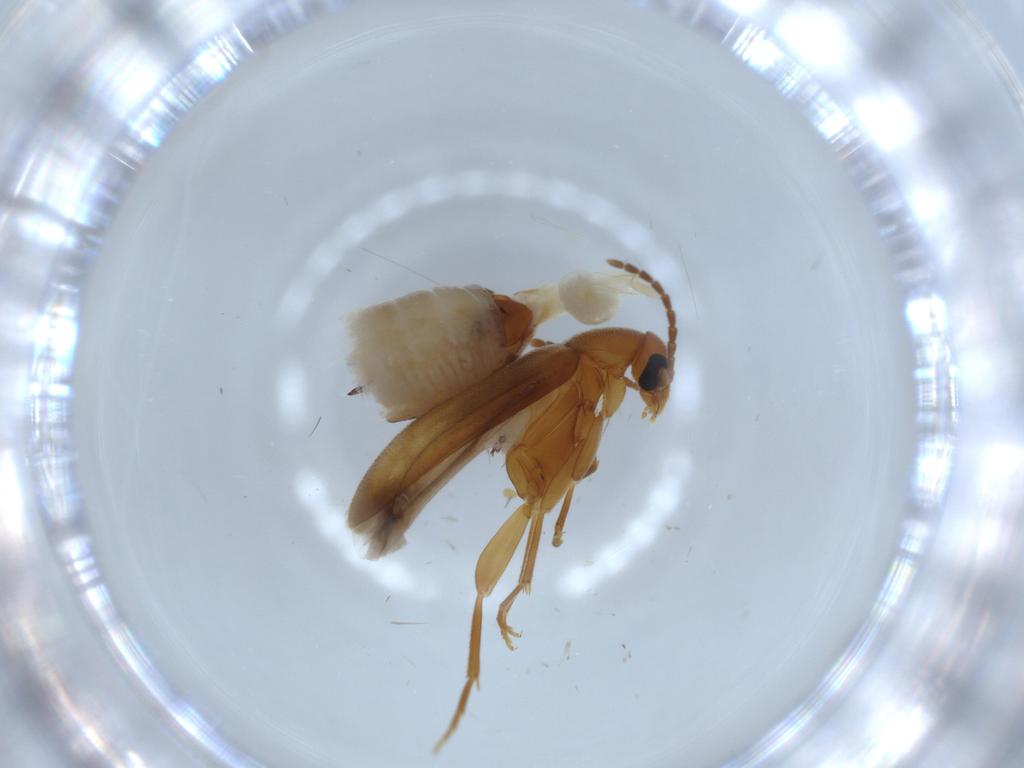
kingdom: Animalia
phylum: Arthropoda
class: Insecta
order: Coleoptera
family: Scraptiidae
